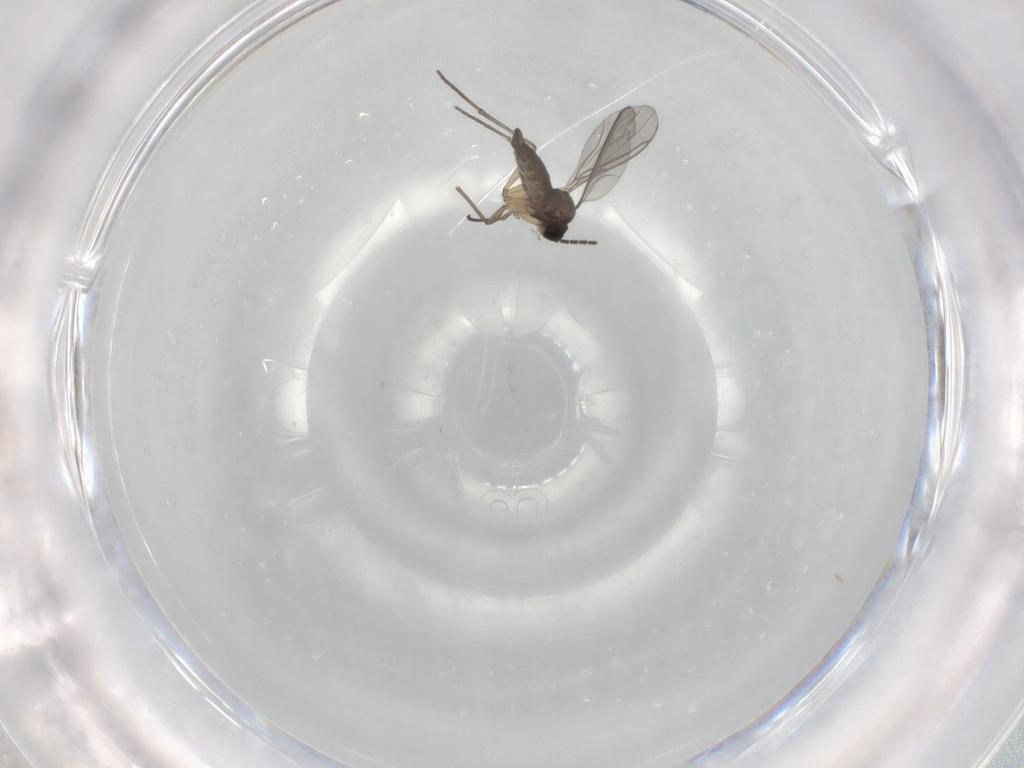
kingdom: Animalia
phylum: Arthropoda
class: Insecta
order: Diptera
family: Sciaridae
